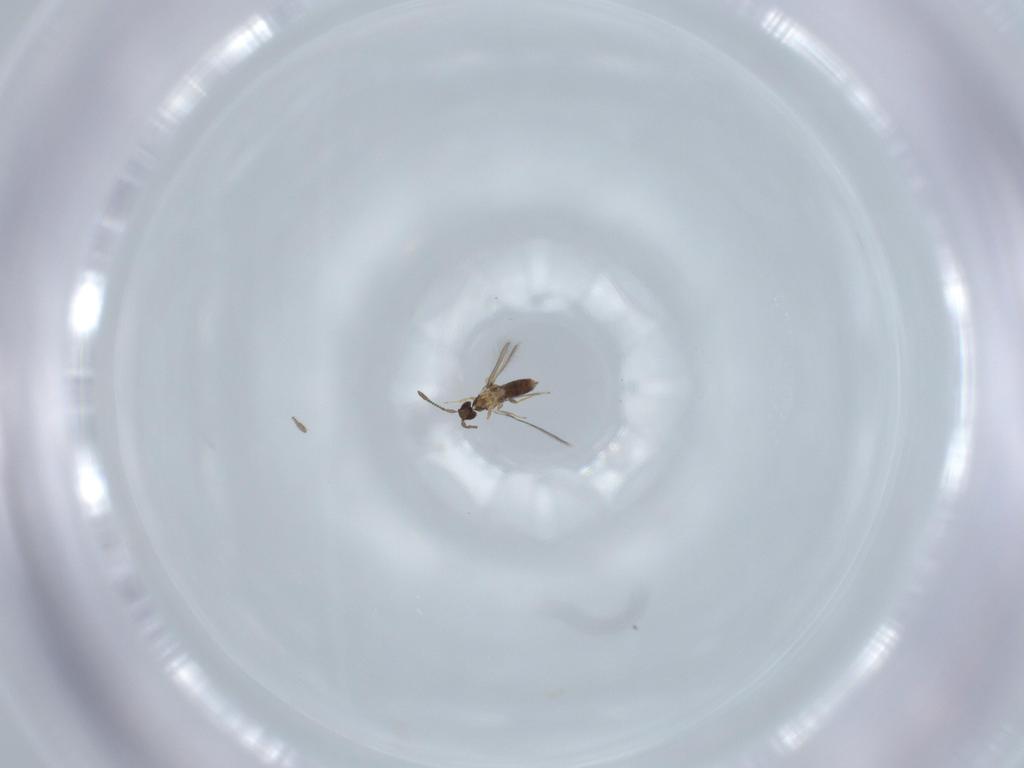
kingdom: Animalia
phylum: Arthropoda
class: Insecta
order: Hymenoptera
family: Mymaridae
